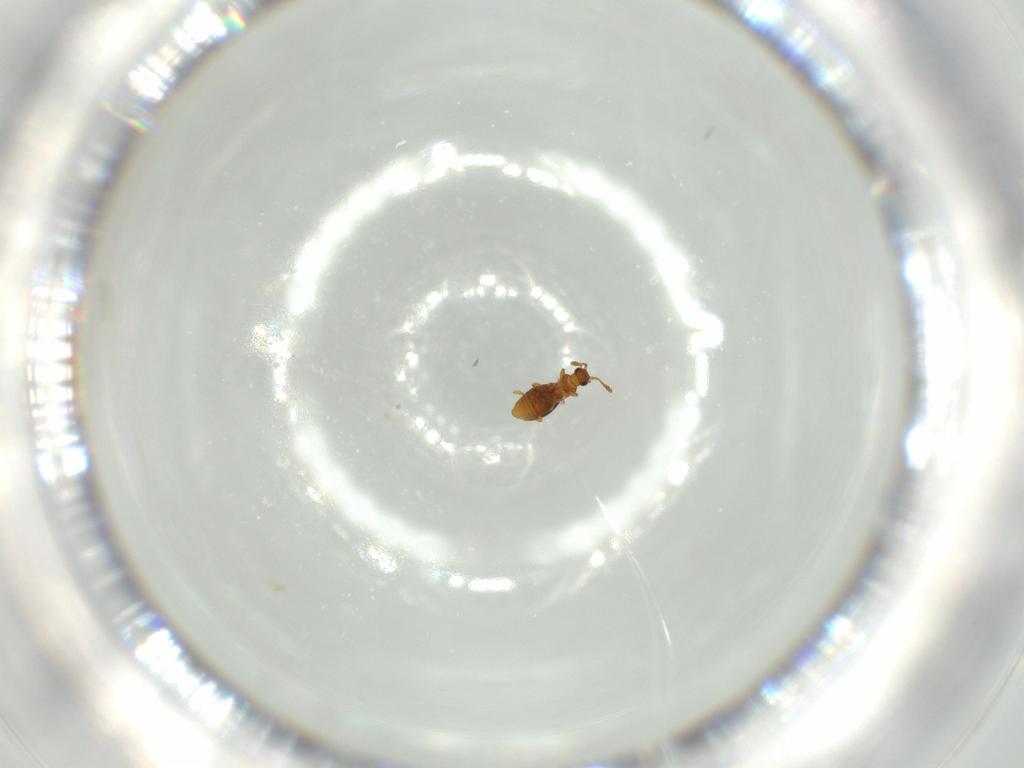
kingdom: Animalia
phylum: Arthropoda
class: Insecta
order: Coleoptera
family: Staphylinidae
